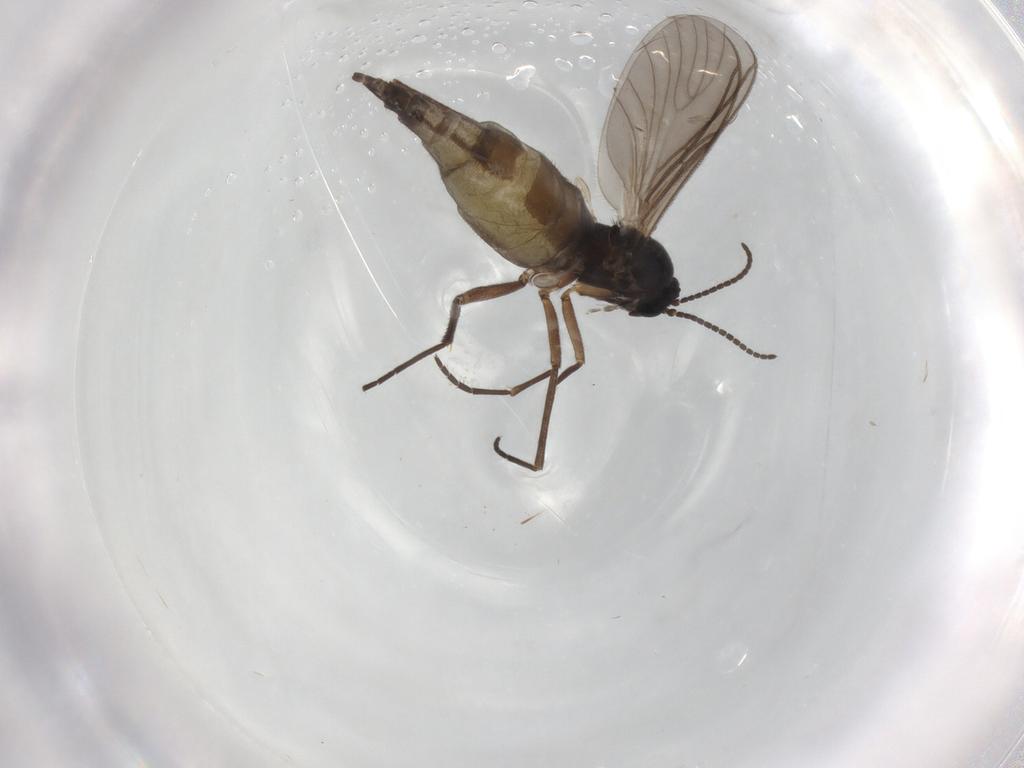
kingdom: Animalia
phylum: Arthropoda
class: Insecta
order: Diptera
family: Sciaridae
